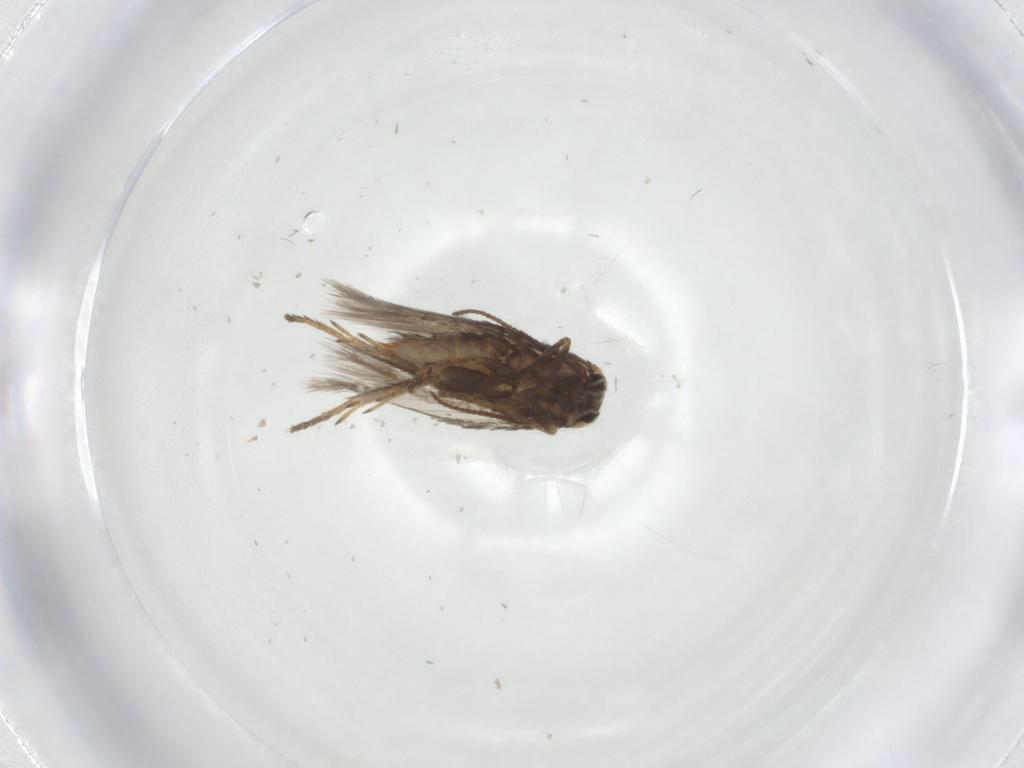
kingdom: Animalia
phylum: Arthropoda
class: Insecta
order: Lepidoptera
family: Nepticulidae
